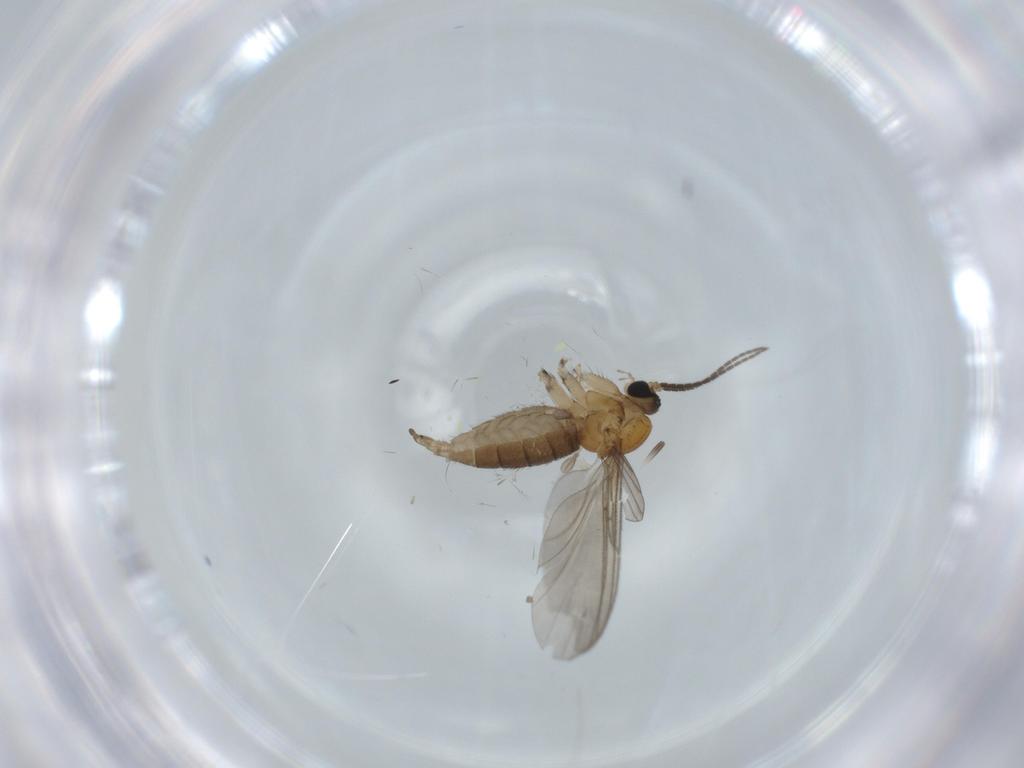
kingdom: Animalia
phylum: Arthropoda
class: Insecta
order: Diptera
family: Sciaridae
